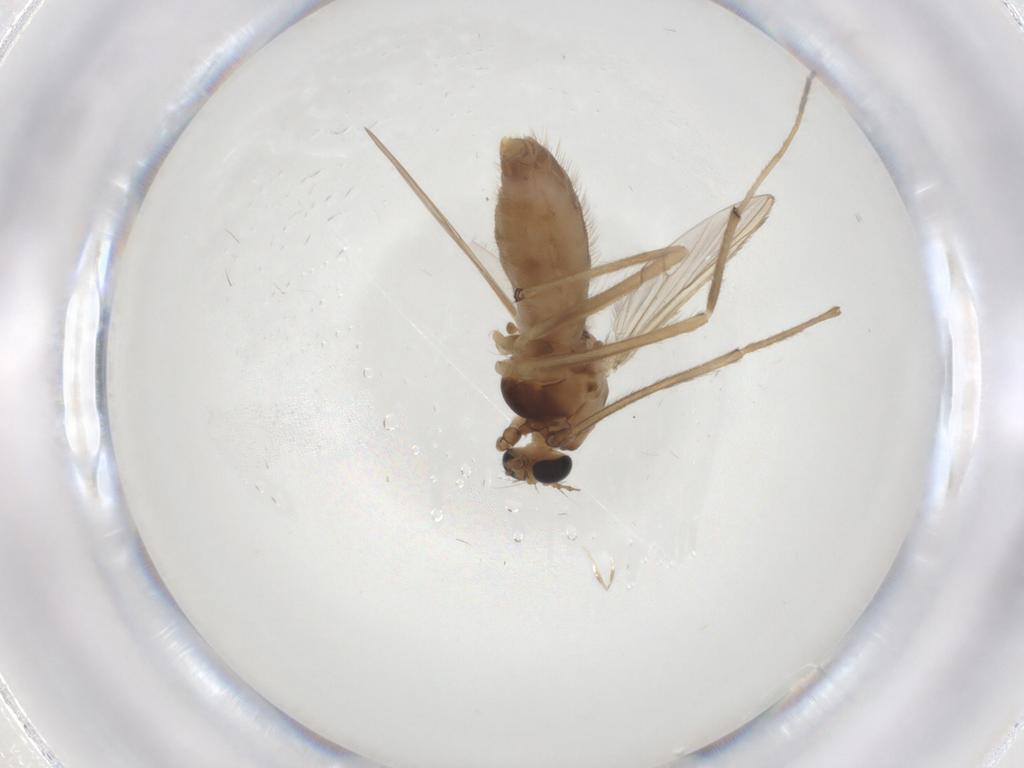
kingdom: Animalia
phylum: Arthropoda
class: Insecta
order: Diptera
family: Chironomidae
